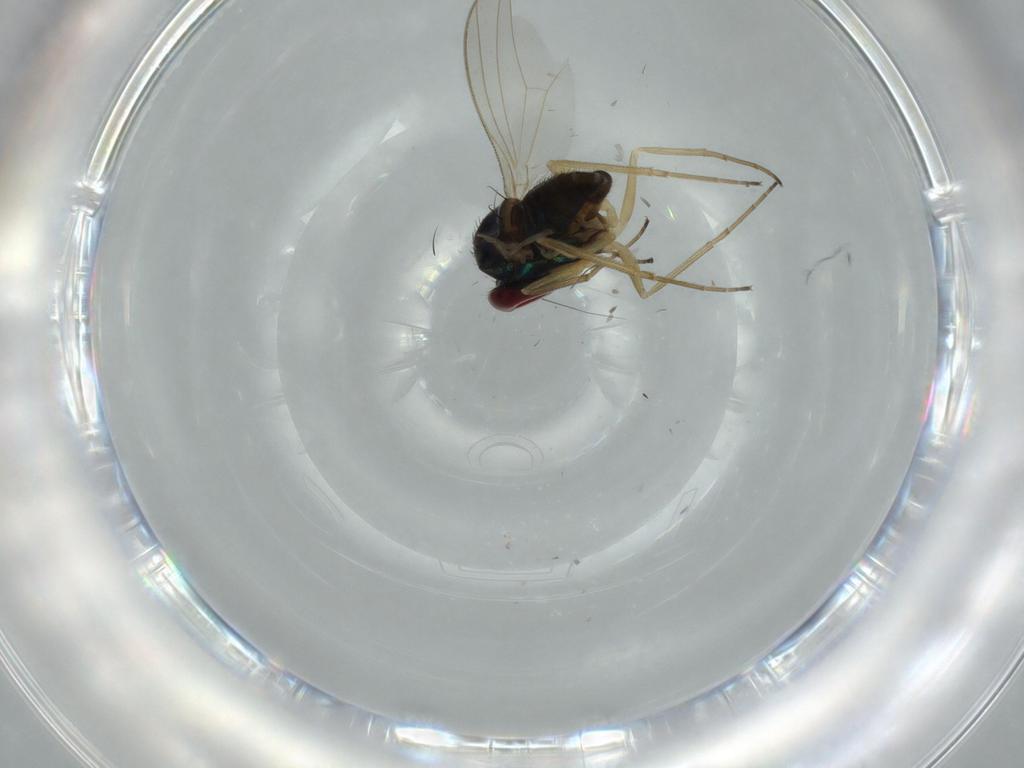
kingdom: Animalia
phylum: Arthropoda
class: Insecta
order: Diptera
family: Dolichopodidae
